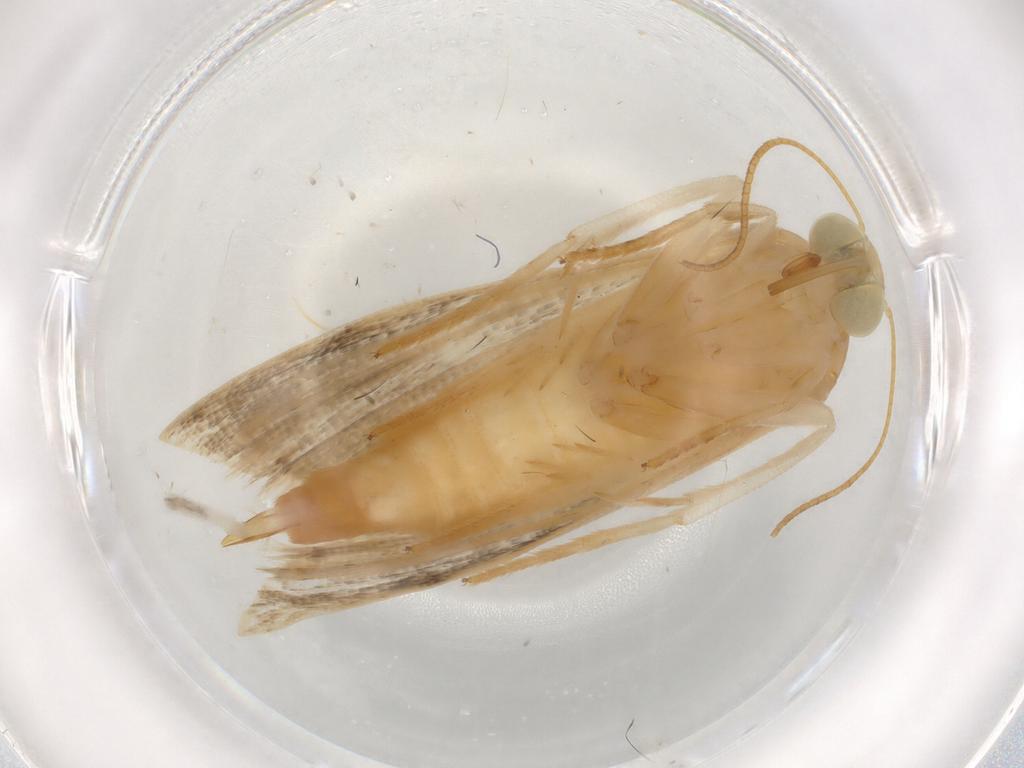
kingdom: Animalia
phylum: Arthropoda
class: Insecta
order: Lepidoptera
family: Noctuidae
